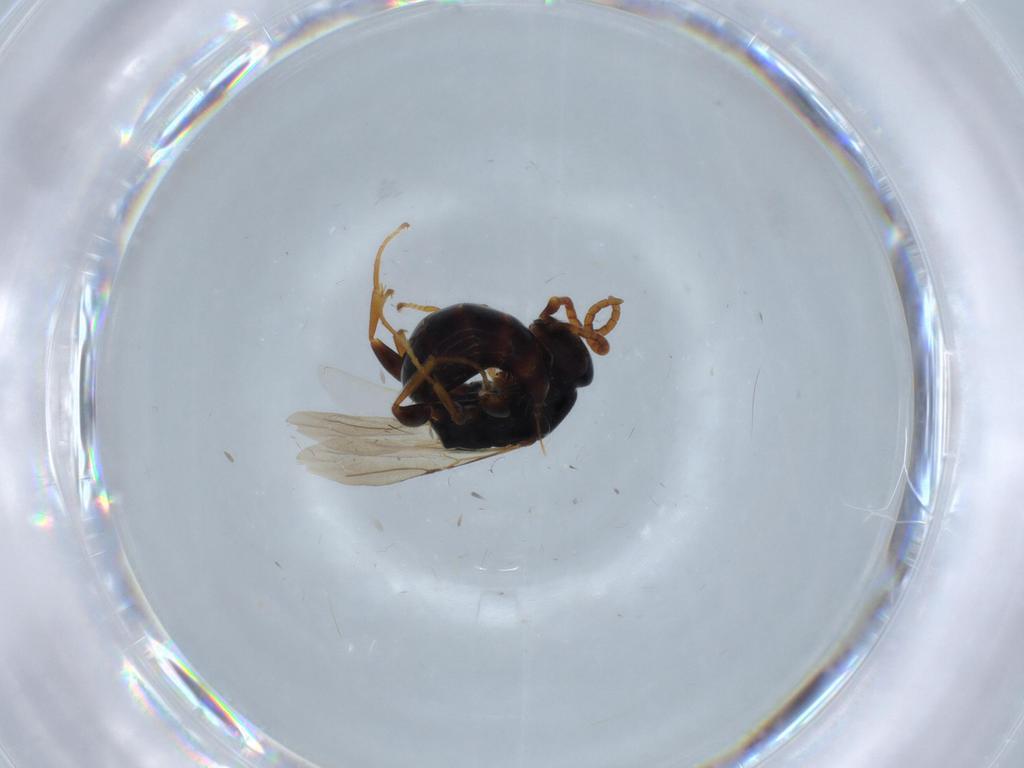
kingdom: Animalia
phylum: Arthropoda
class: Insecta
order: Hymenoptera
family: Bethylidae
